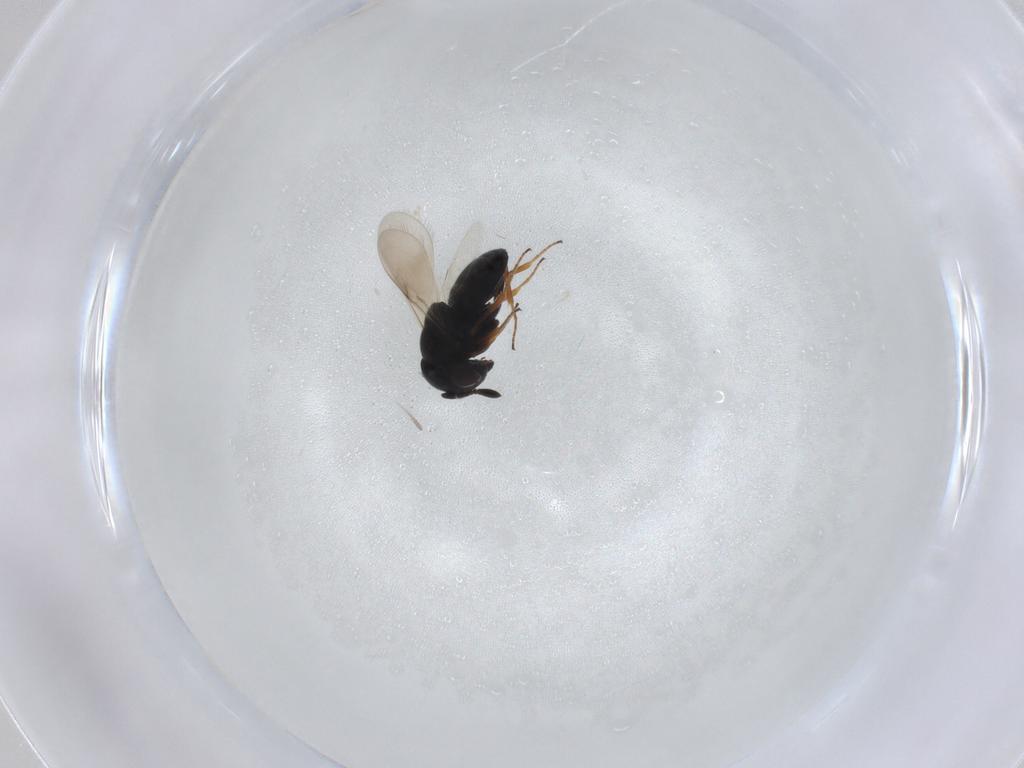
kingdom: Animalia
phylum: Arthropoda
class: Insecta
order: Hymenoptera
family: Scelionidae
